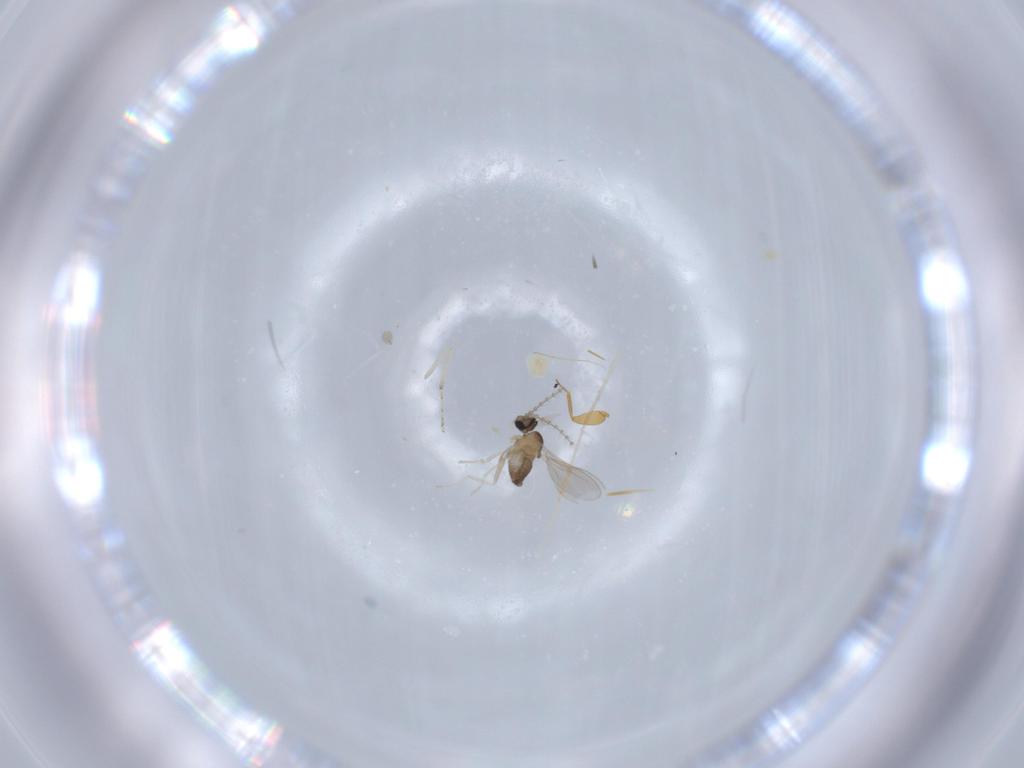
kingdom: Animalia
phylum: Arthropoda
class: Insecta
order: Diptera
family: Cecidomyiidae
